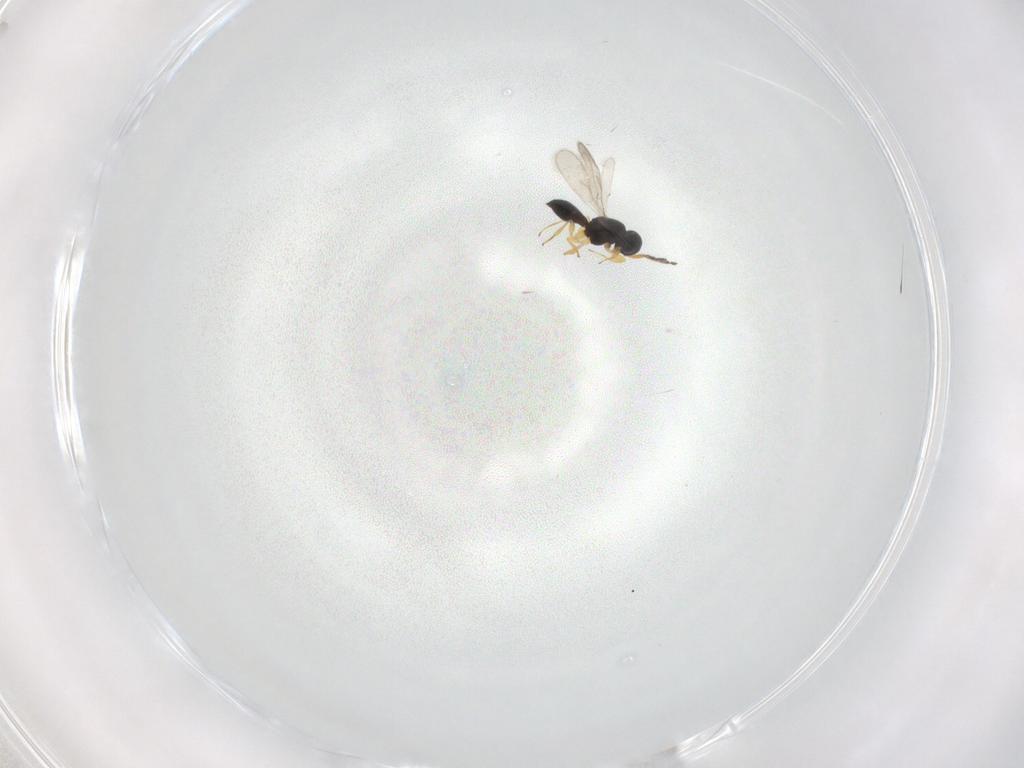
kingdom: Animalia
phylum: Arthropoda
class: Insecta
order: Hymenoptera
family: Scelionidae
